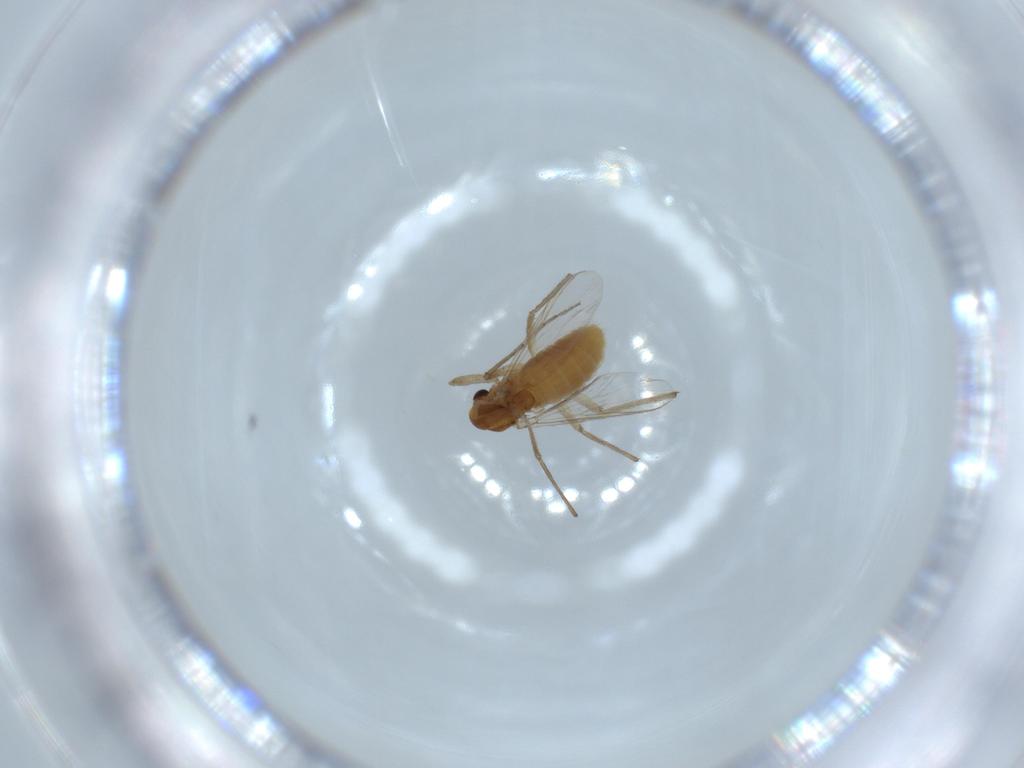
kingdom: Animalia
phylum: Arthropoda
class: Insecta
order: Diptera
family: Chironomidae
